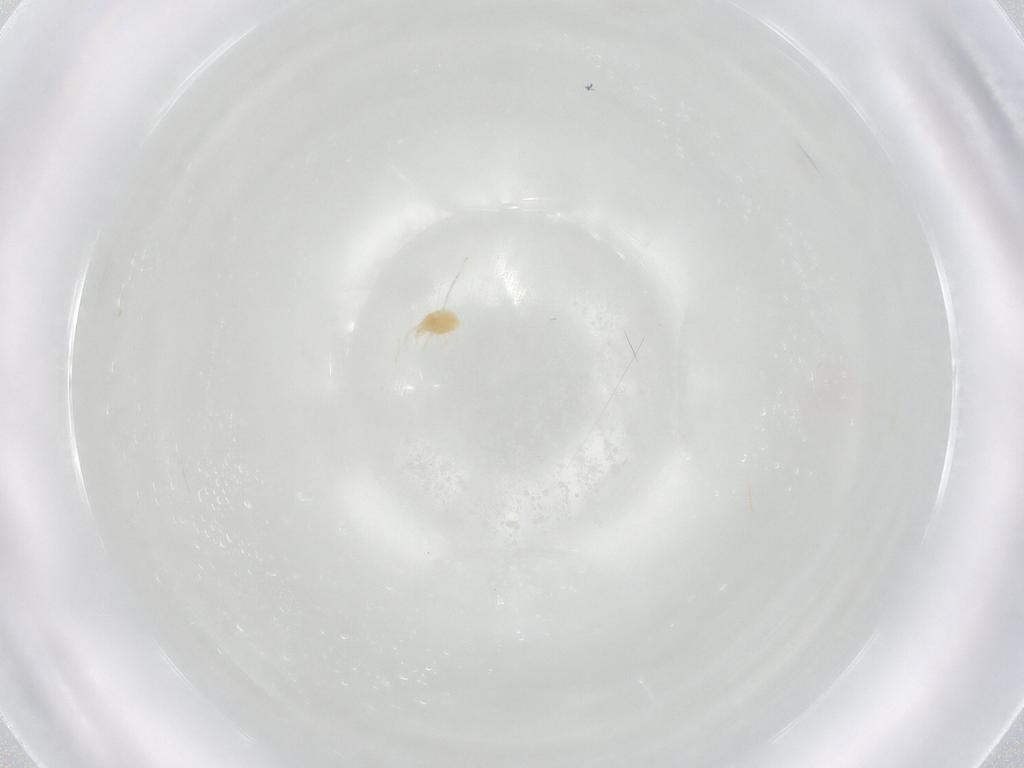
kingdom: Animalia
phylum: Arthropoda
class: Arachnida
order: Trombidiformes
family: Tetranychidae
